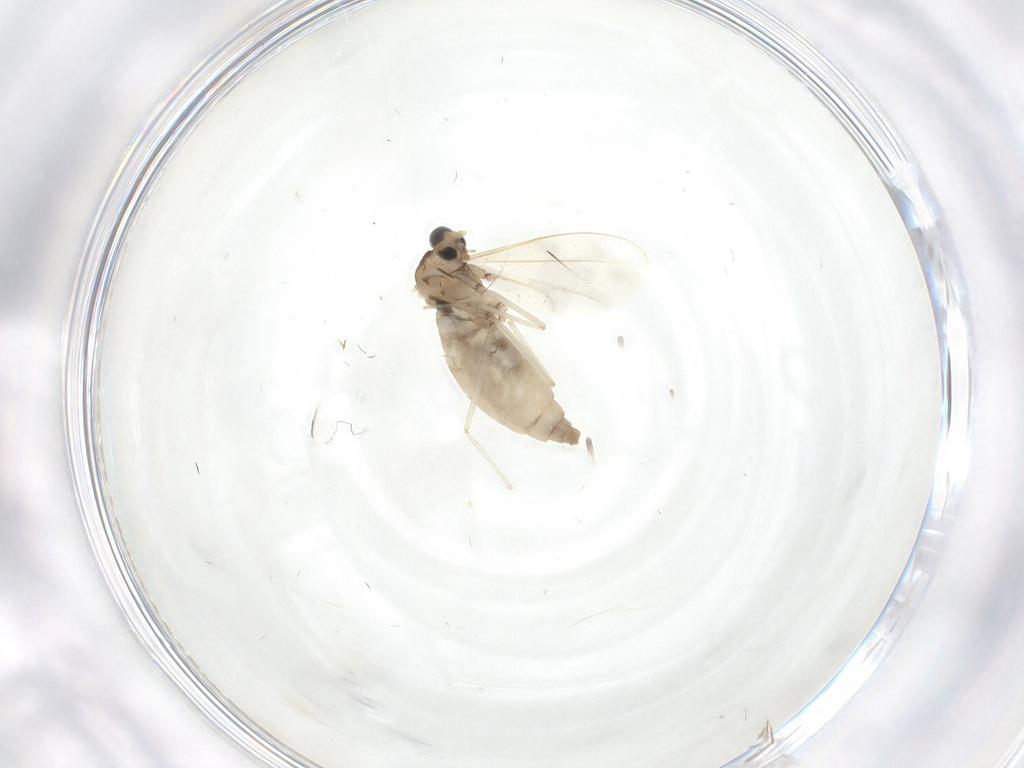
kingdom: Animalia
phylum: Arthropoda
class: Insecta
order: Diptera
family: Cecidomyiidae
